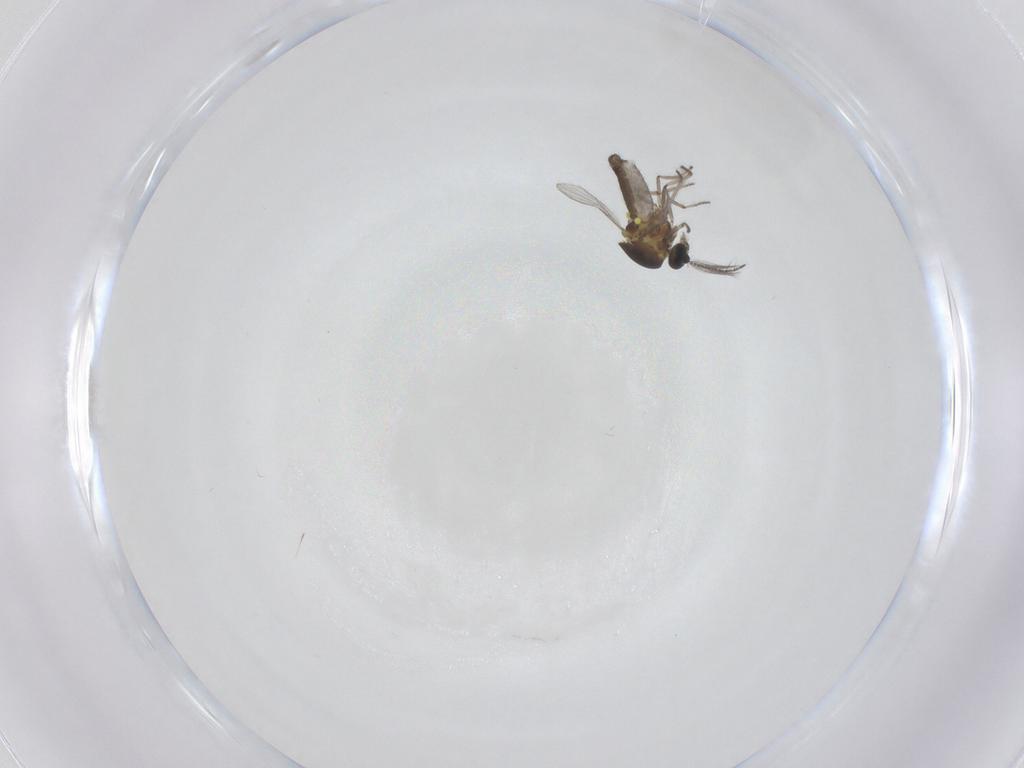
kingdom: Animalia
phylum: Arthropoda
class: Insecta
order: Diptera
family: Ceratopogonidae
